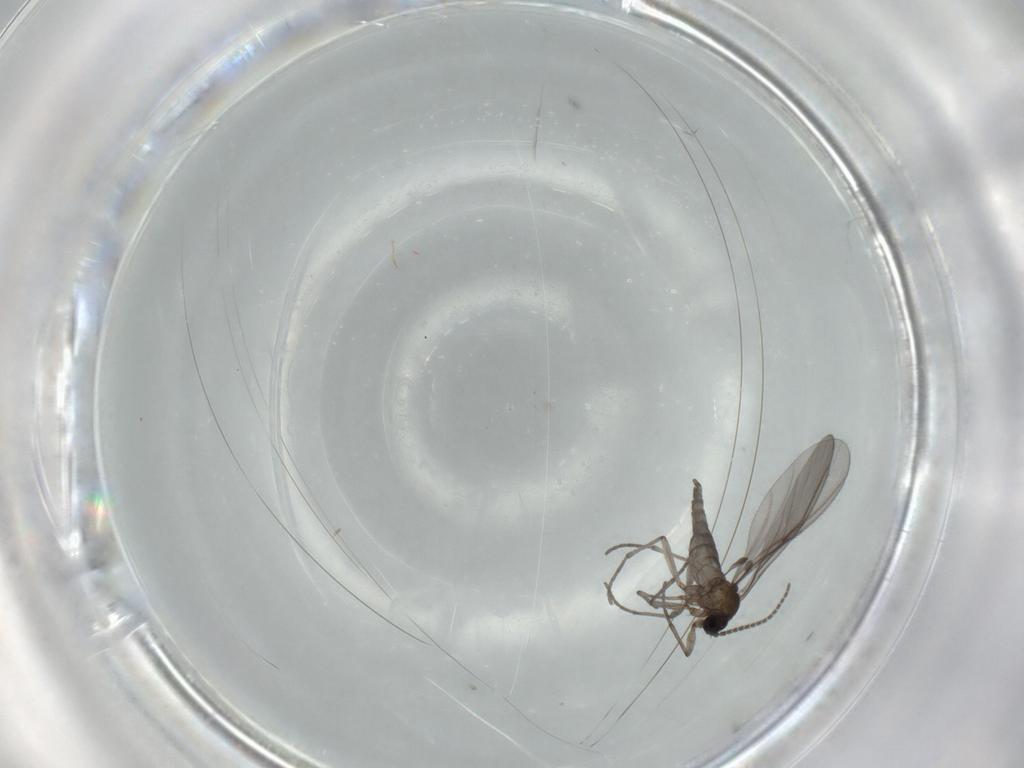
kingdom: Animalia
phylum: Arthropoda
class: Insecta
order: Diptera
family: Sciaridae
